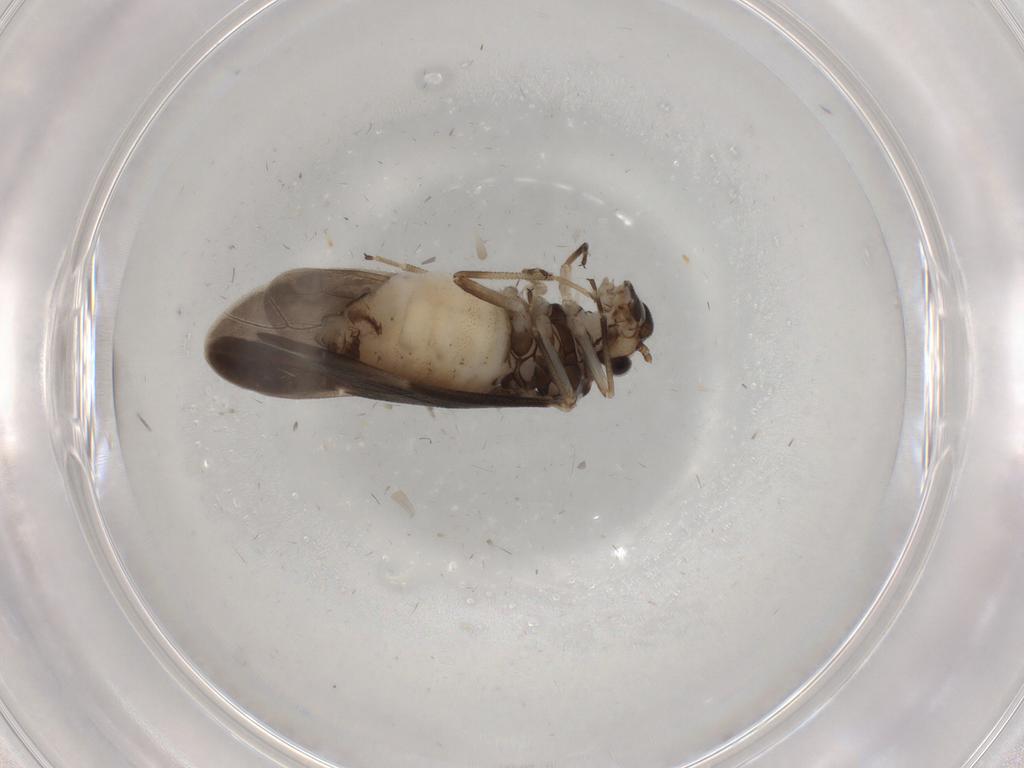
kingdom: Animalia
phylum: Arthropoda
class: Insecta
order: Psocodea
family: Caeciliusidae
